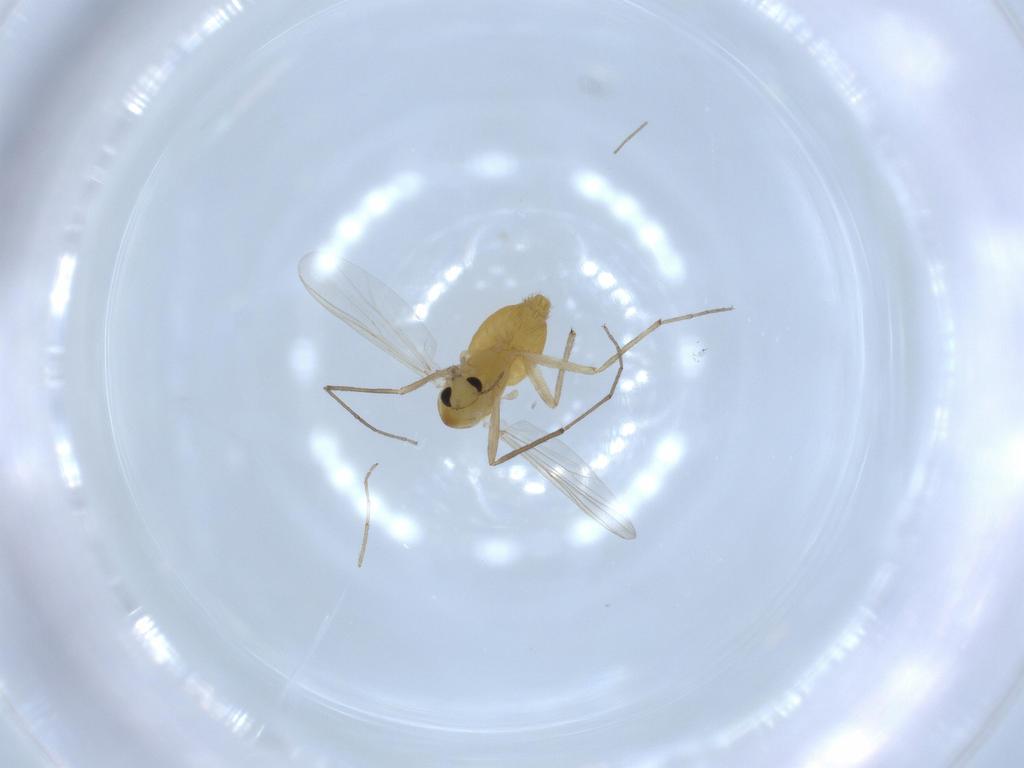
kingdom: Animalia
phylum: Arthropoda
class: Insecta
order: Diptera
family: Chironomidae
